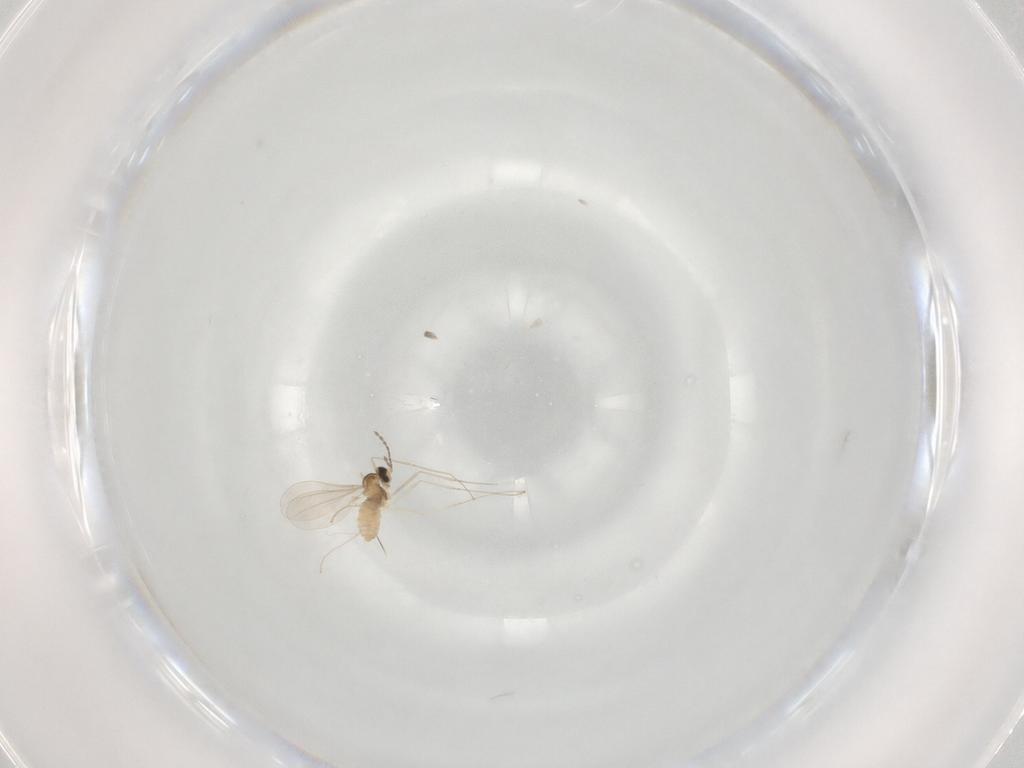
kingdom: Animalia
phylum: Arthropoda
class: Insecta
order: Diptera
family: Cecidomyiidae
